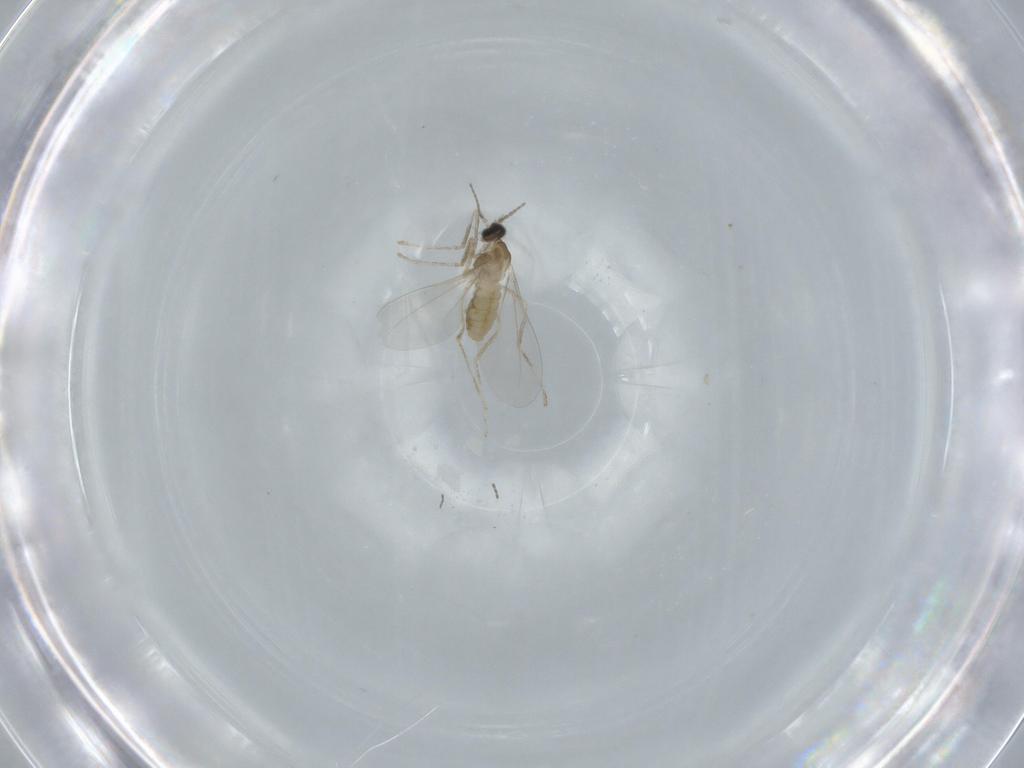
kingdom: Animalia
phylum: Arthropoda
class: Insecta
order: Diptera
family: Cecidomyiidae
